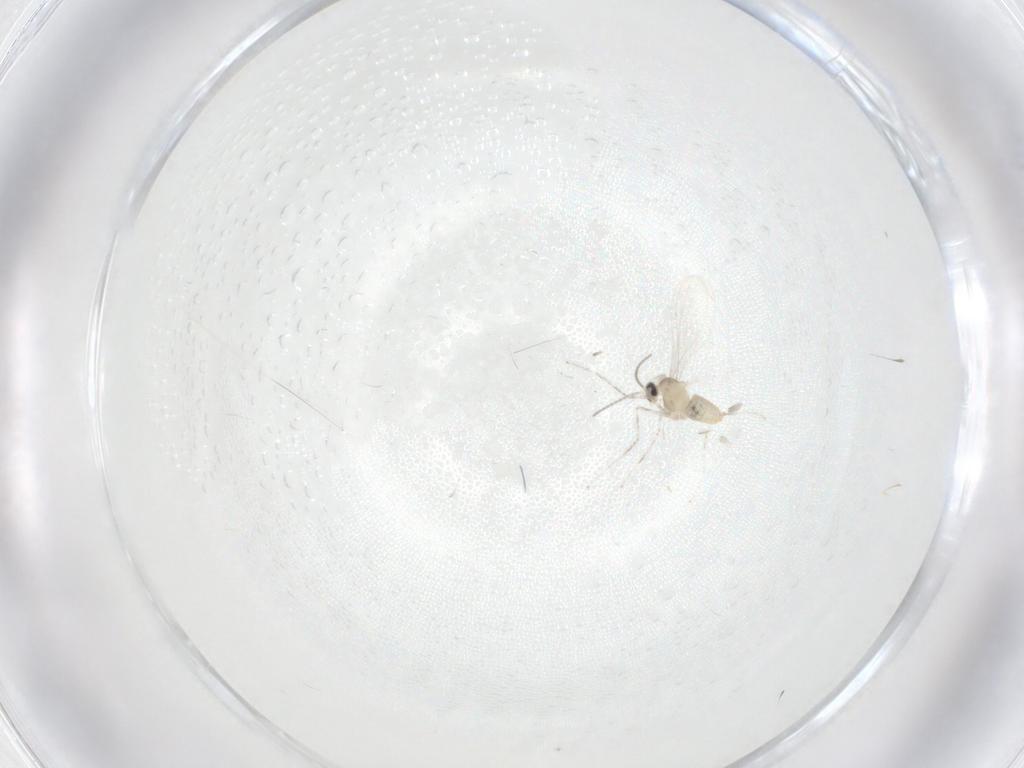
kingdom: Animalia
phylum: Arthropoda
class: Insecta
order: Diptera
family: Cecidomyiidae
